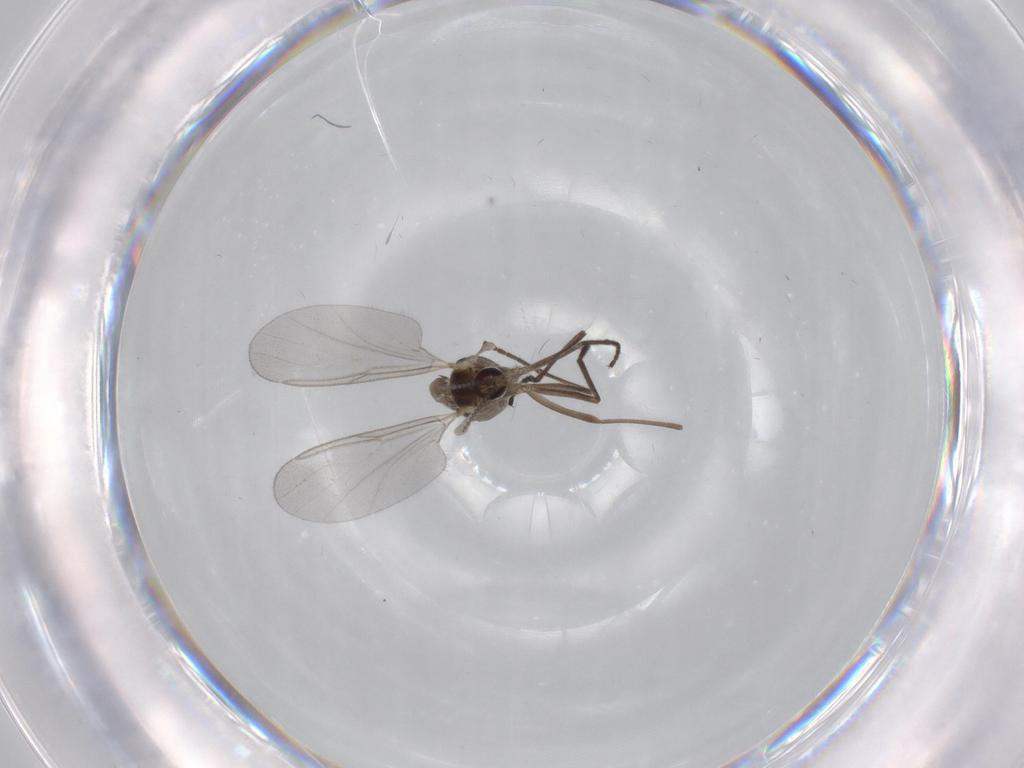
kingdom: Animalia
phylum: Arthropoda
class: Insecta
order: Diptera
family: Cecidomyiidae
